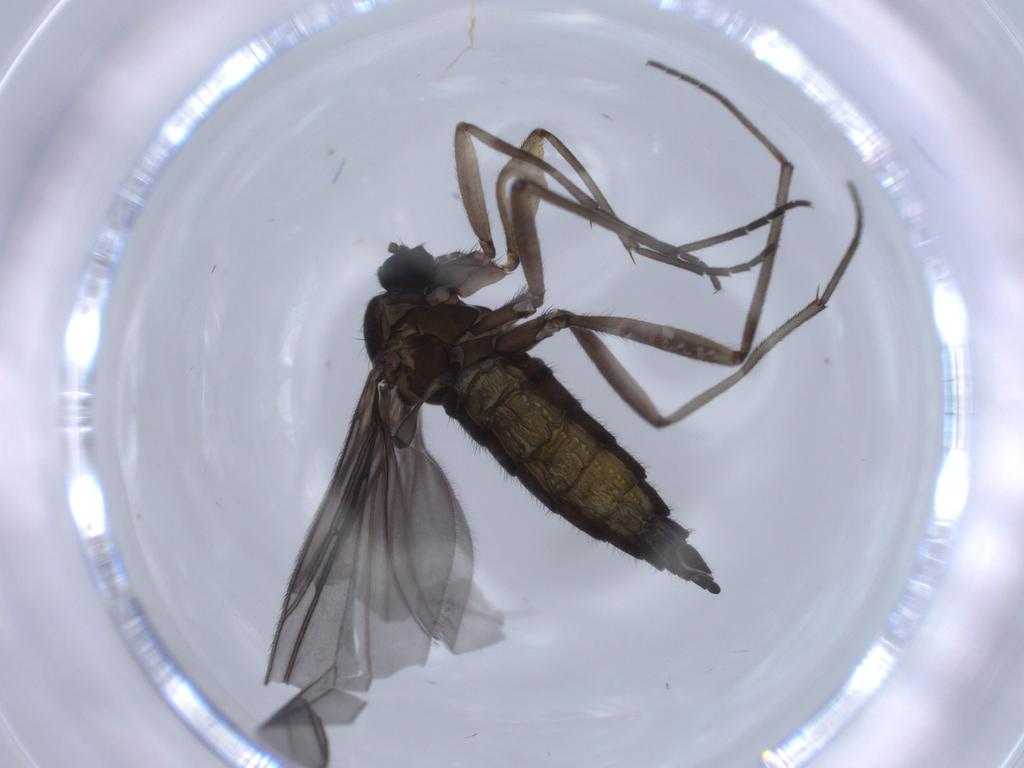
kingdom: Animalia
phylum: Arthropoda
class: Insecta
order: Diptera
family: Sciaridae
